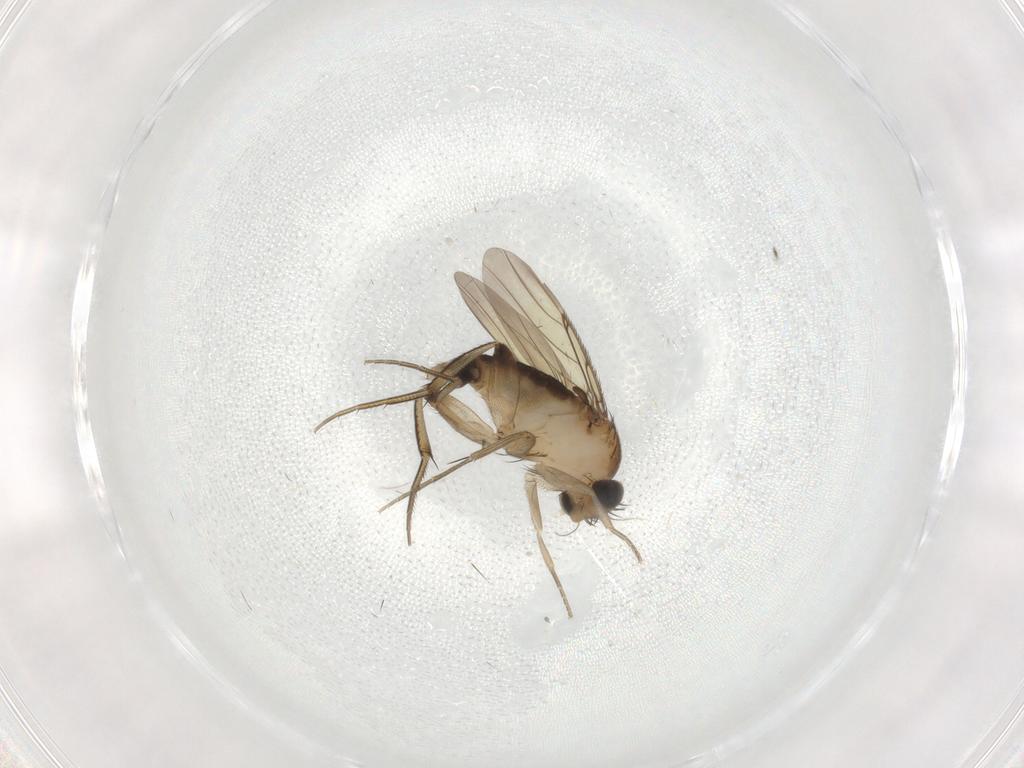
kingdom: Animalia
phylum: Arthropoda
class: Insecta
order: Diptera
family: Phoridae
